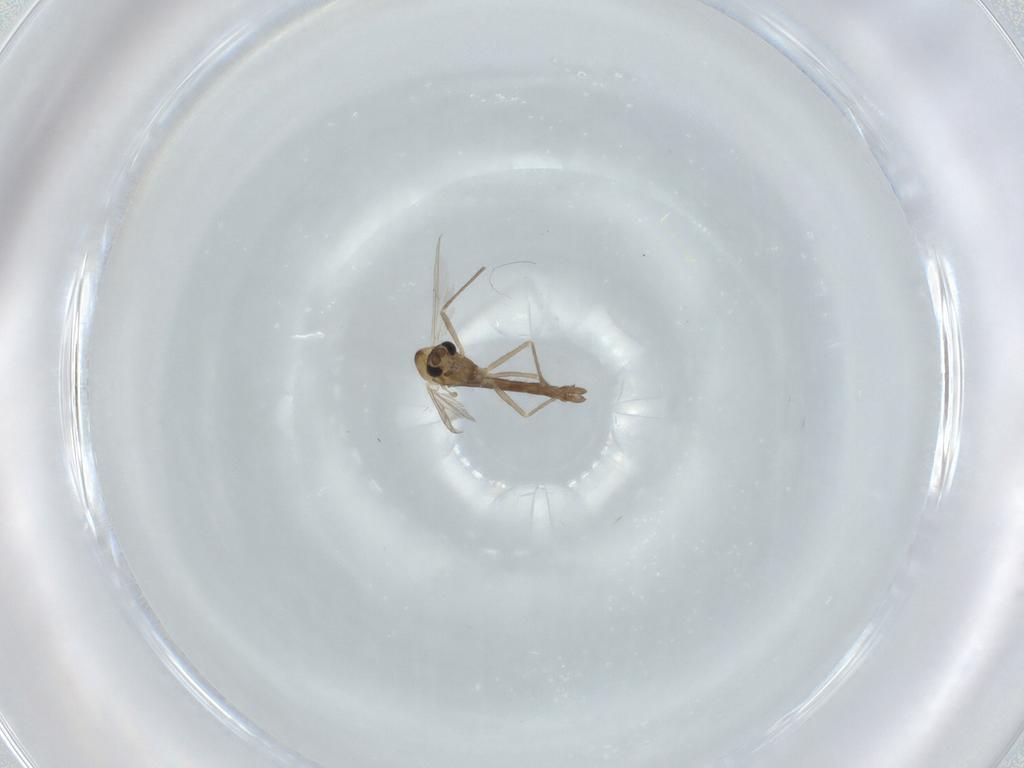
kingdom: Animalia
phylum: Arthropoda
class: Insecta
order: Diptera
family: Chironomidae
